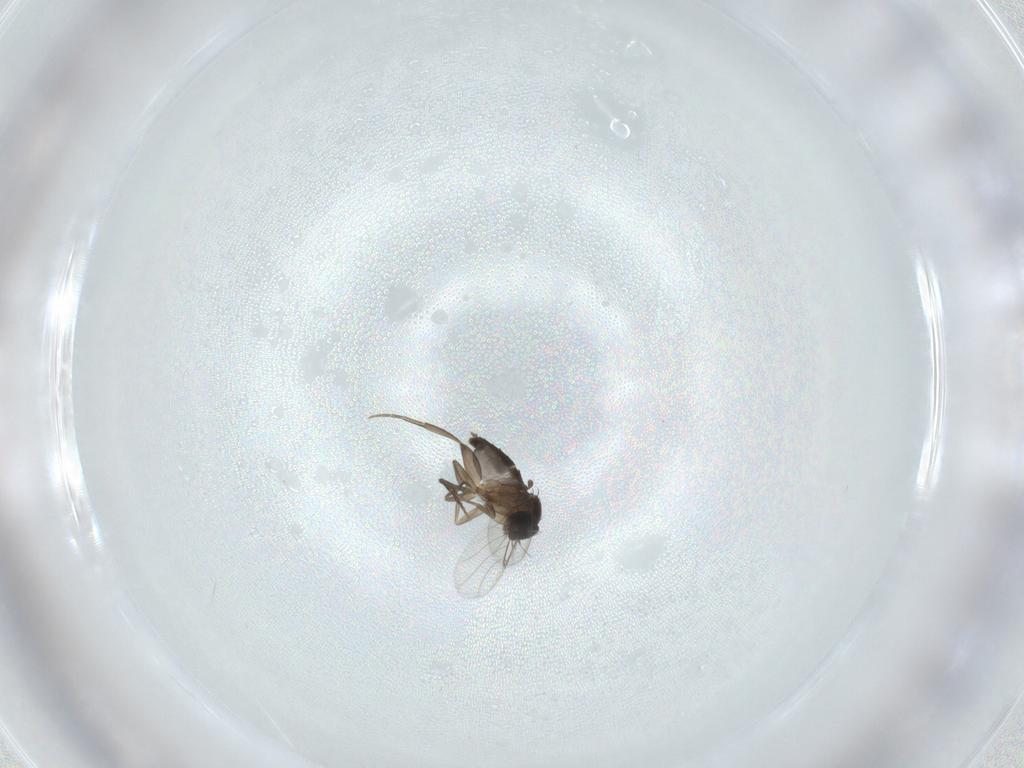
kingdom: Animalia
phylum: Arthropoda
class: Insecta
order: Diptera
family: Phoridae
